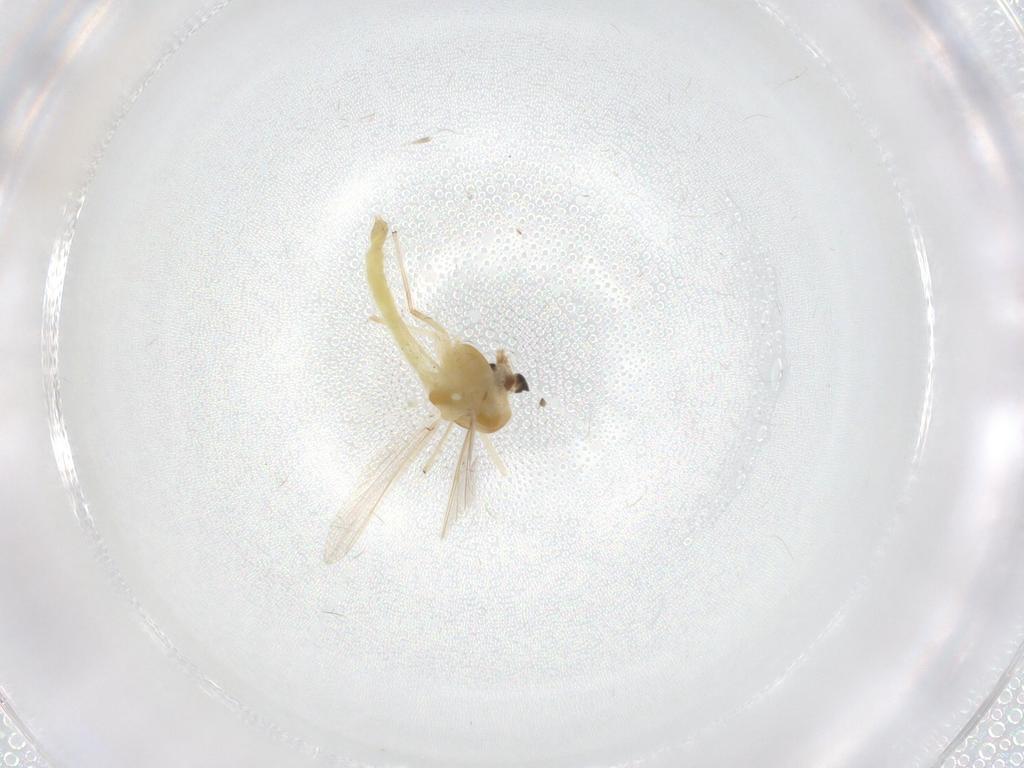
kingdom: Animalia
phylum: Arthropoda
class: Insecta
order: Diptera
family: Chironomidae
